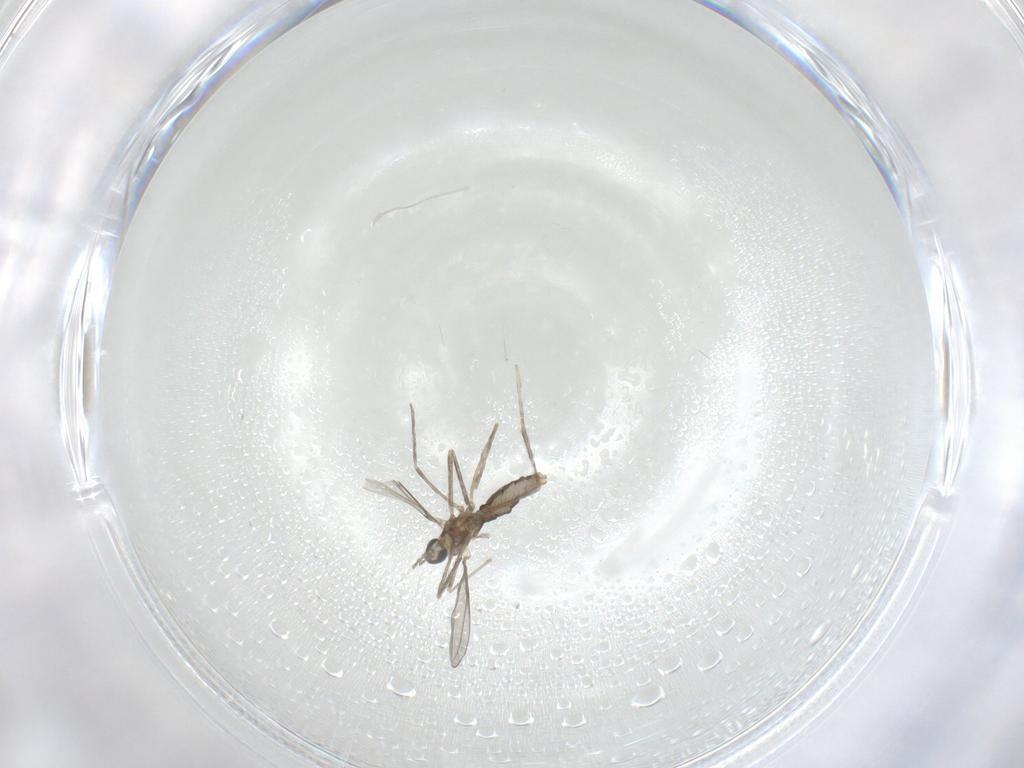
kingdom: Animalia
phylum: Arthropoda
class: Insecta
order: Diptera
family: Cecidomyiidae
